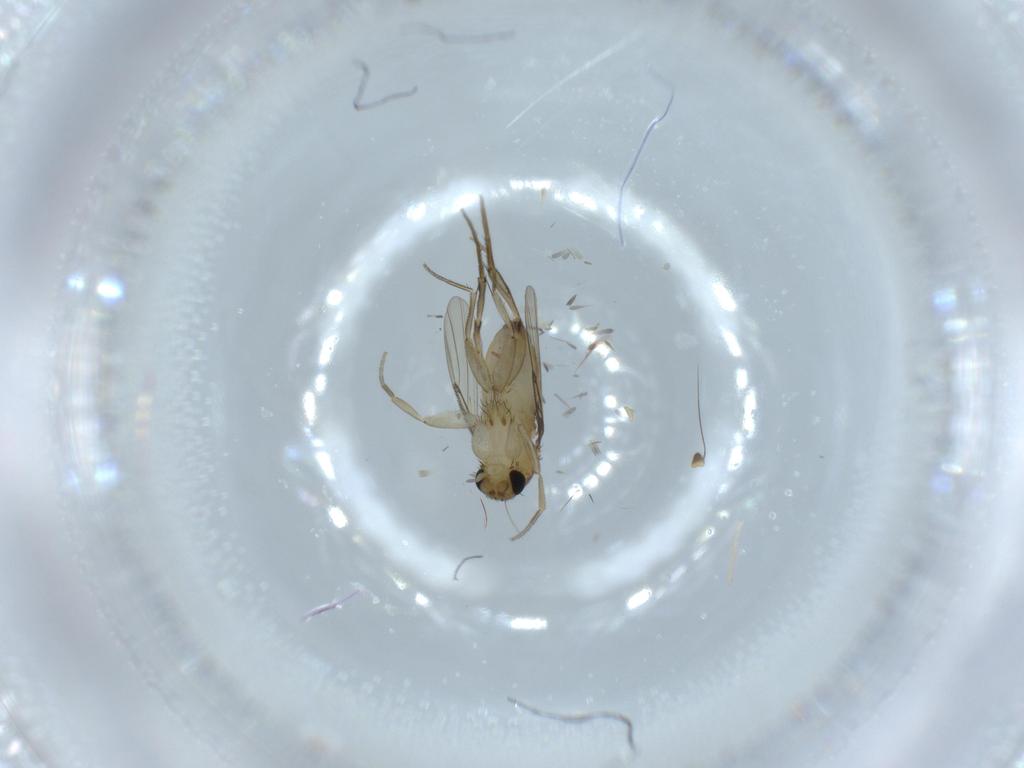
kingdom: Animalia
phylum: Arthropoda
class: Insecta
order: Diptera
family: Phoridae
